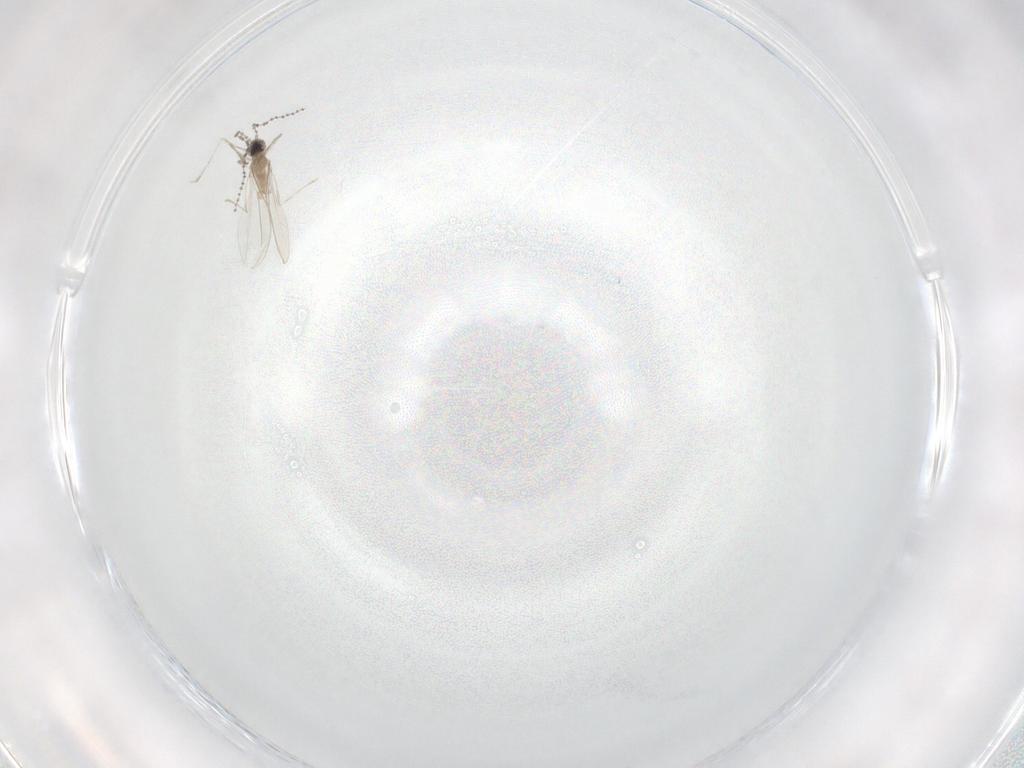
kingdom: Animalia
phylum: Arthropoda
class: Insecta
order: Diptera
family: Cecidomyiidae
